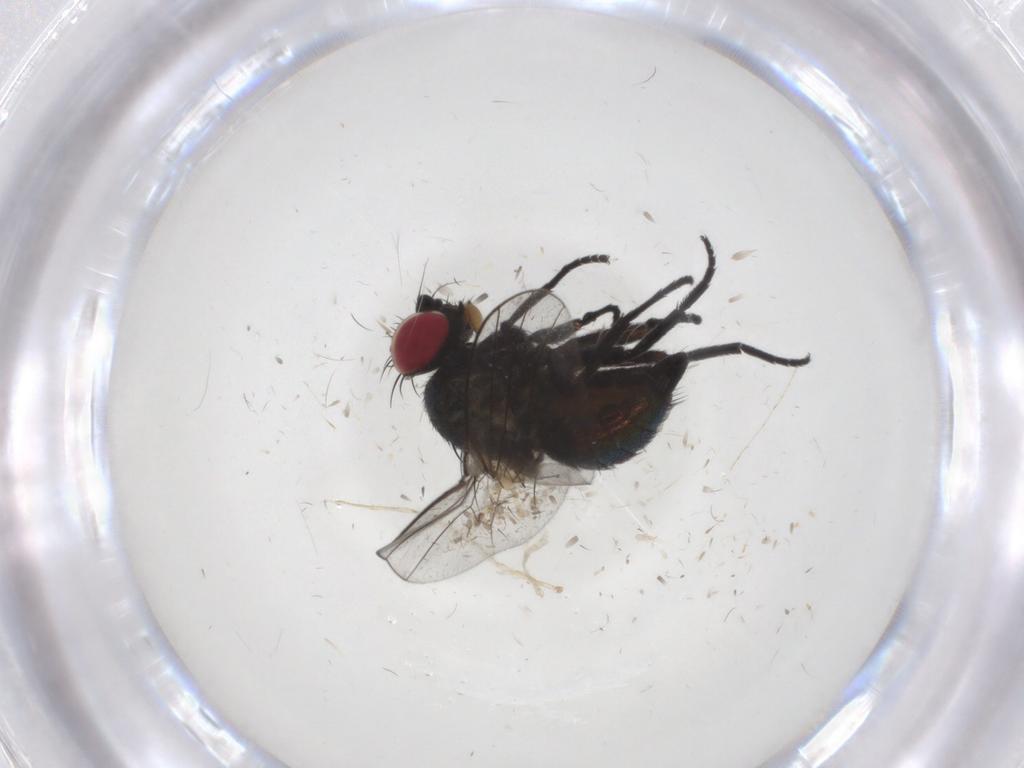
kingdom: Animalia
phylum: Arthropoda
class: Insecta
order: Diptera
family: Agromyzidae
